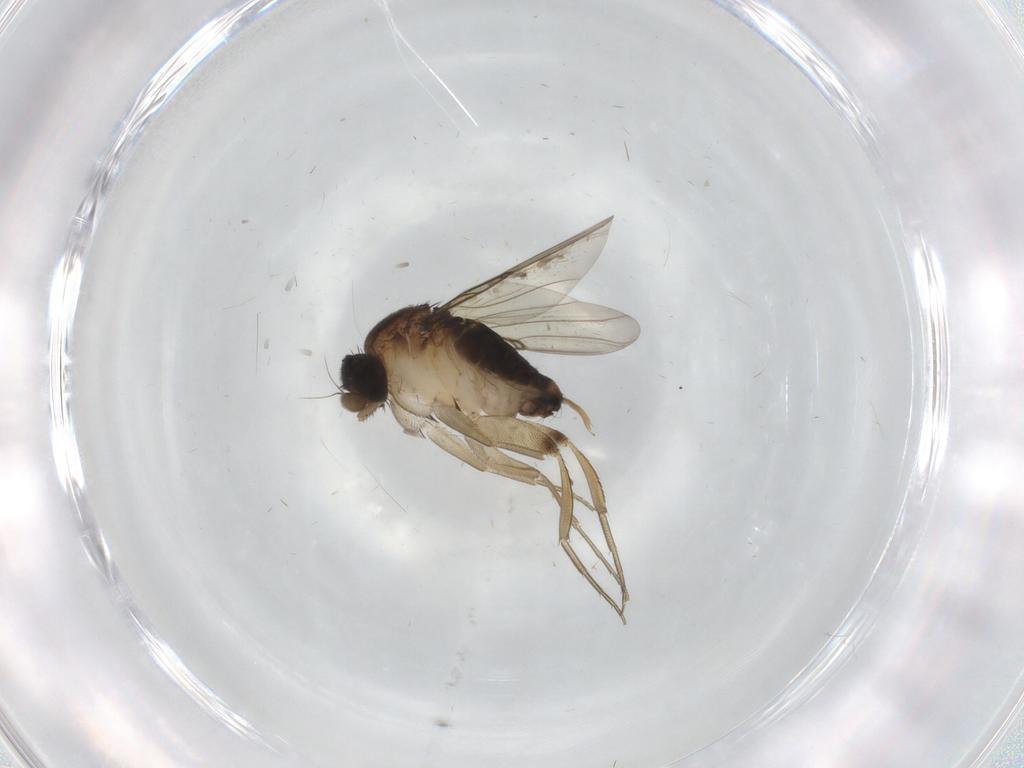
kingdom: Animalia
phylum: Arthropoda
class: Insecta
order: Diptera
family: Phoridae
